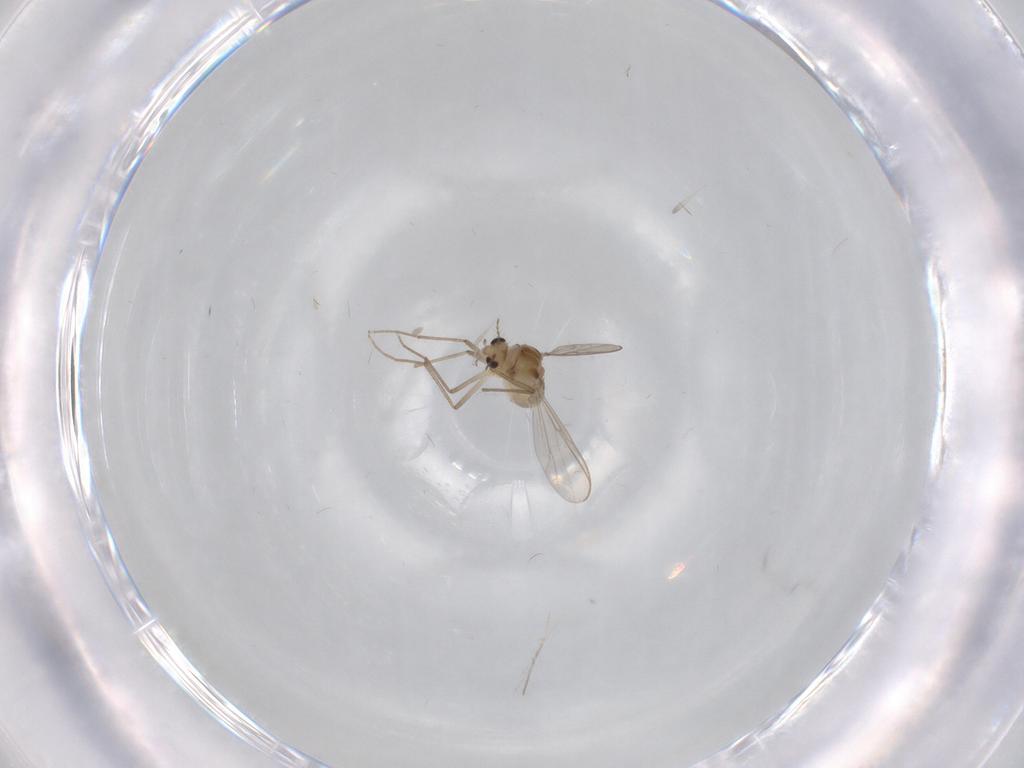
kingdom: Animalia
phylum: Arthropoda
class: Insecta
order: Diptera
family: Chironomidae
